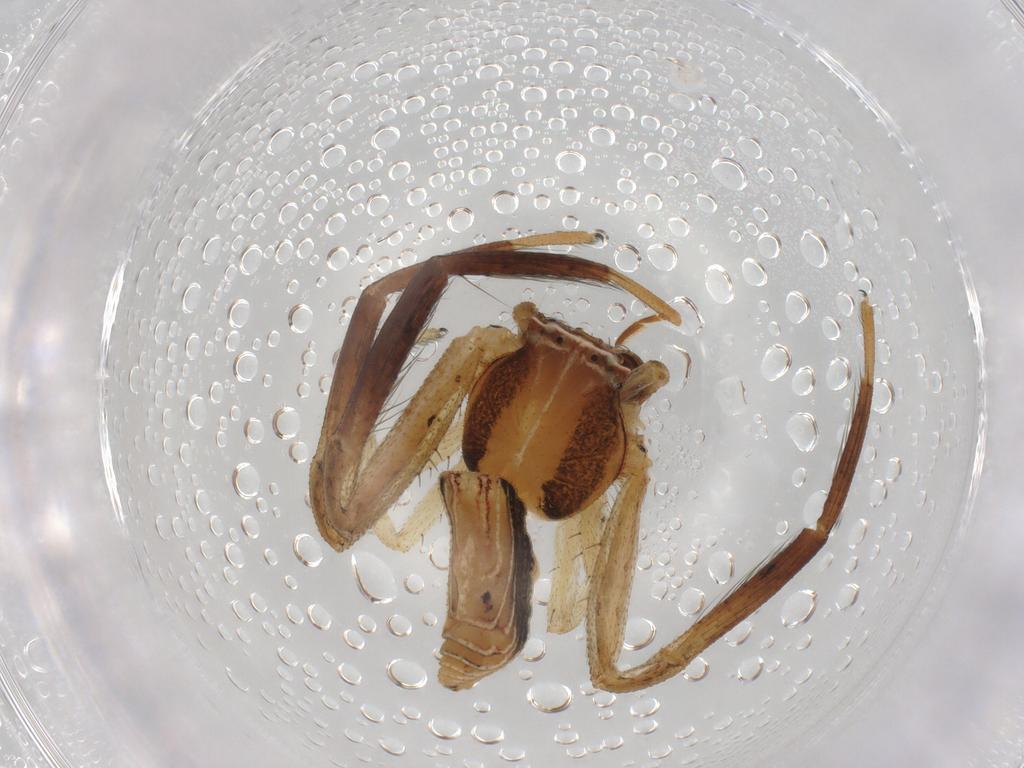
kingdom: Animalia
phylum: Arthropoda
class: Arachnida
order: Araneae
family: Thomisidae
